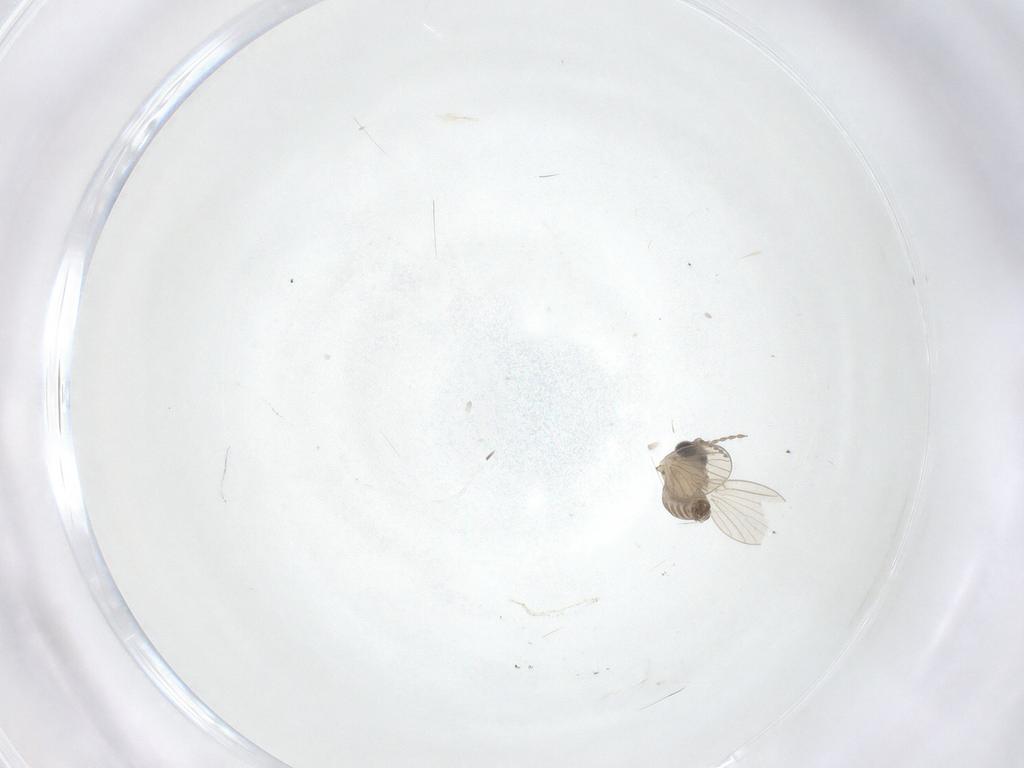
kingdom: Animalia
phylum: Arthropoda
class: Insecta
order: Diptera
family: Psychodidae
